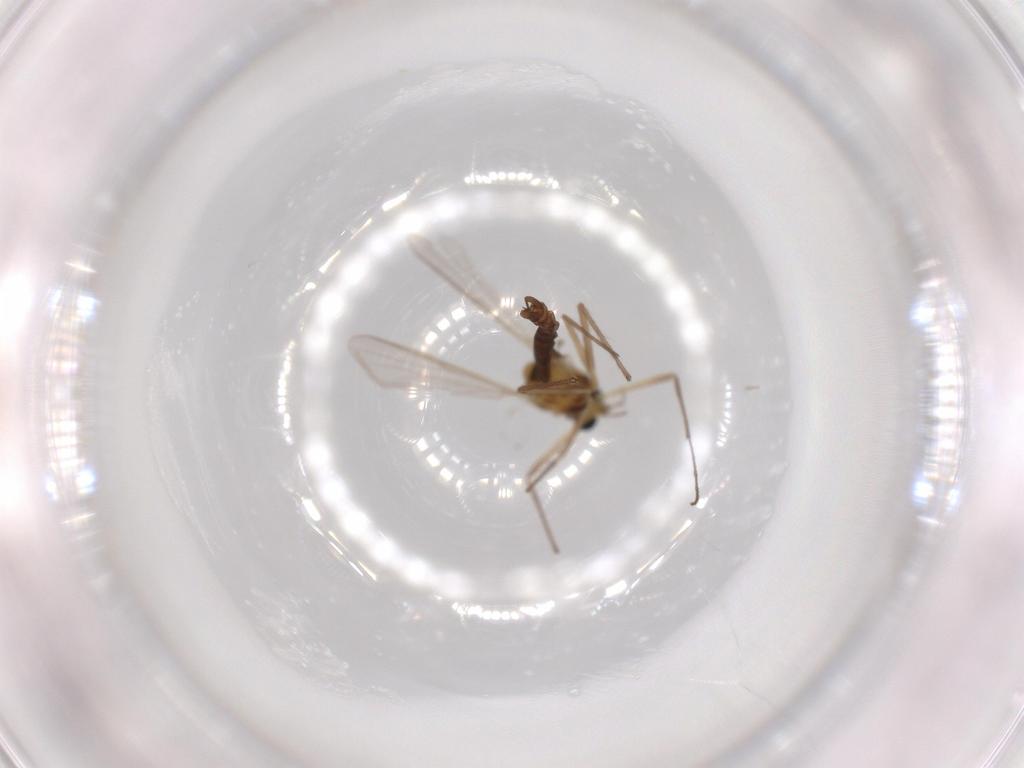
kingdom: Animalia
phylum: Arthropoda
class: Insecta
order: Diptera
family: Chironomidae
